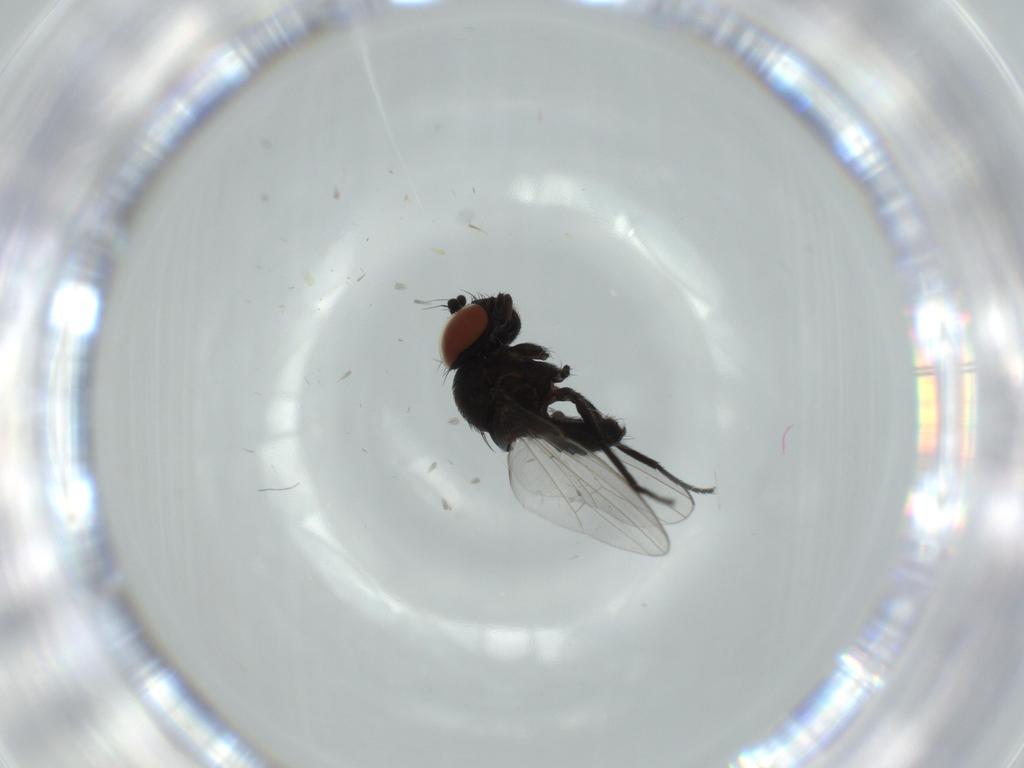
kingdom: Animalia
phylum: Arthropoda
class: Insecta
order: Diptera
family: Milichiidae
